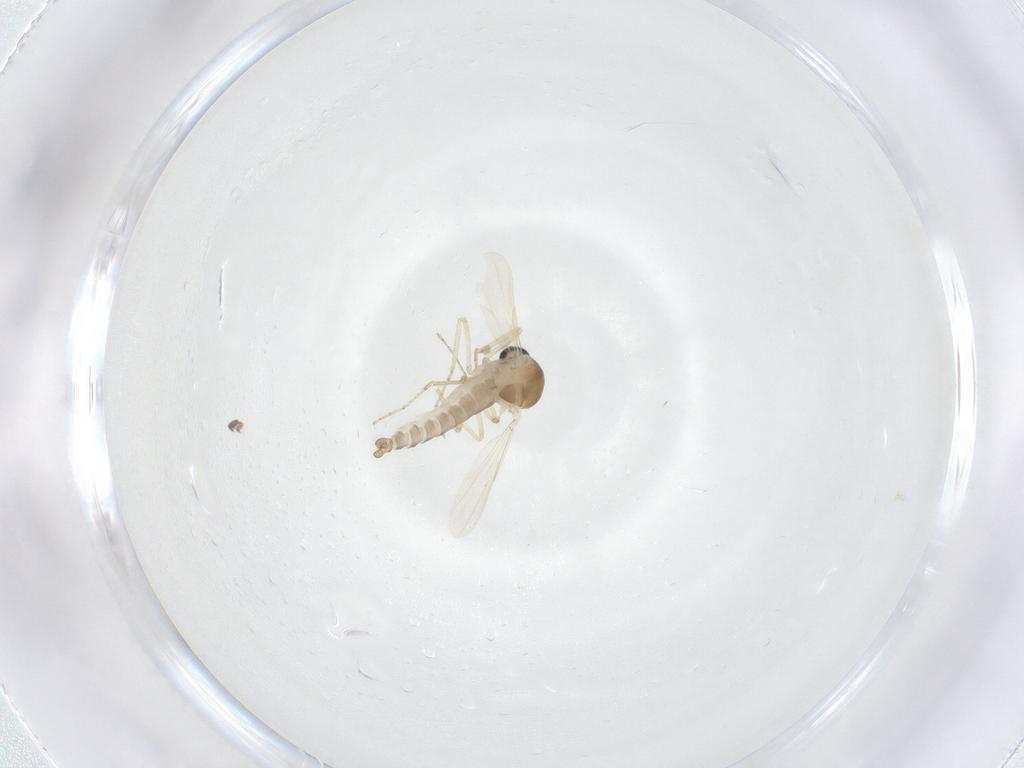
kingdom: Animalia
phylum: Arthropoda
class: Insecta
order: Diptera
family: Ceratopogonidae
